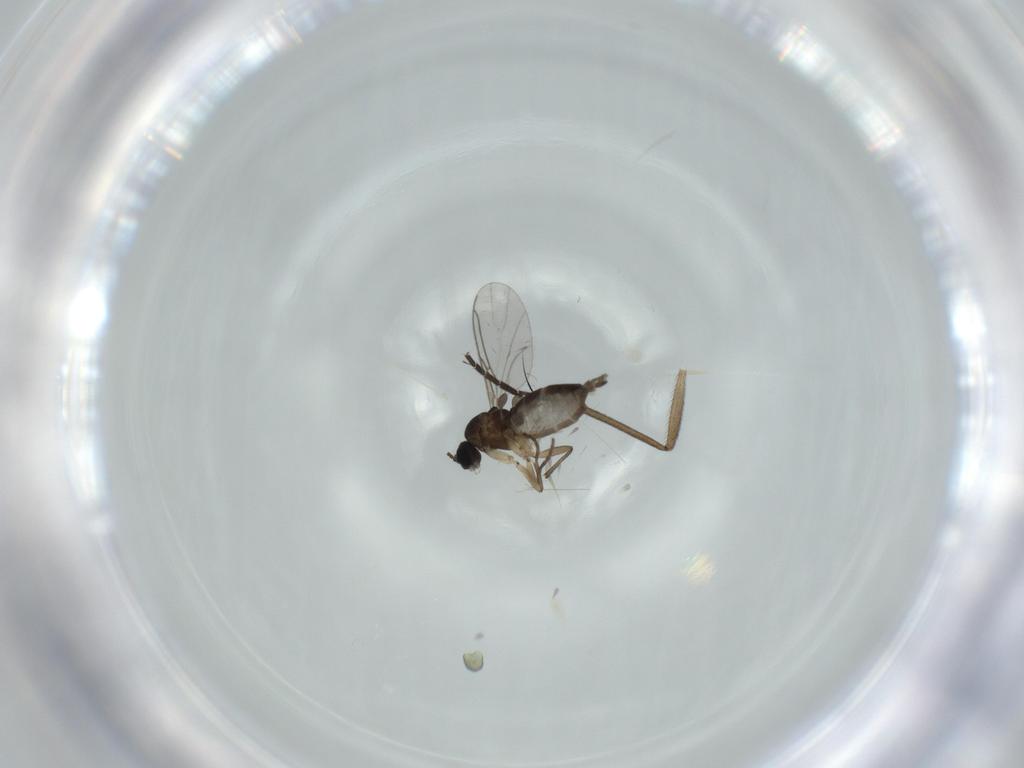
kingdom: Animalia
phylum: Arthropoda
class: Insecta
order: Diptera
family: Sciaridae
